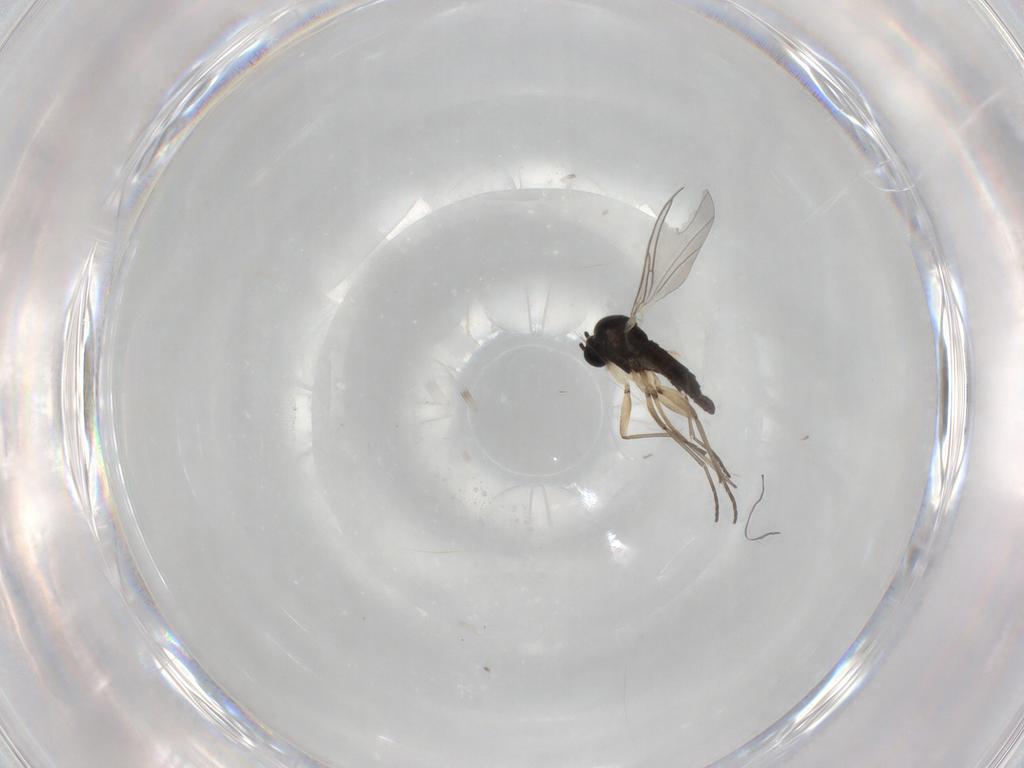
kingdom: Animalia
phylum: Arthropoda
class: Insecta
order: Diptera
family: Sciaridae
